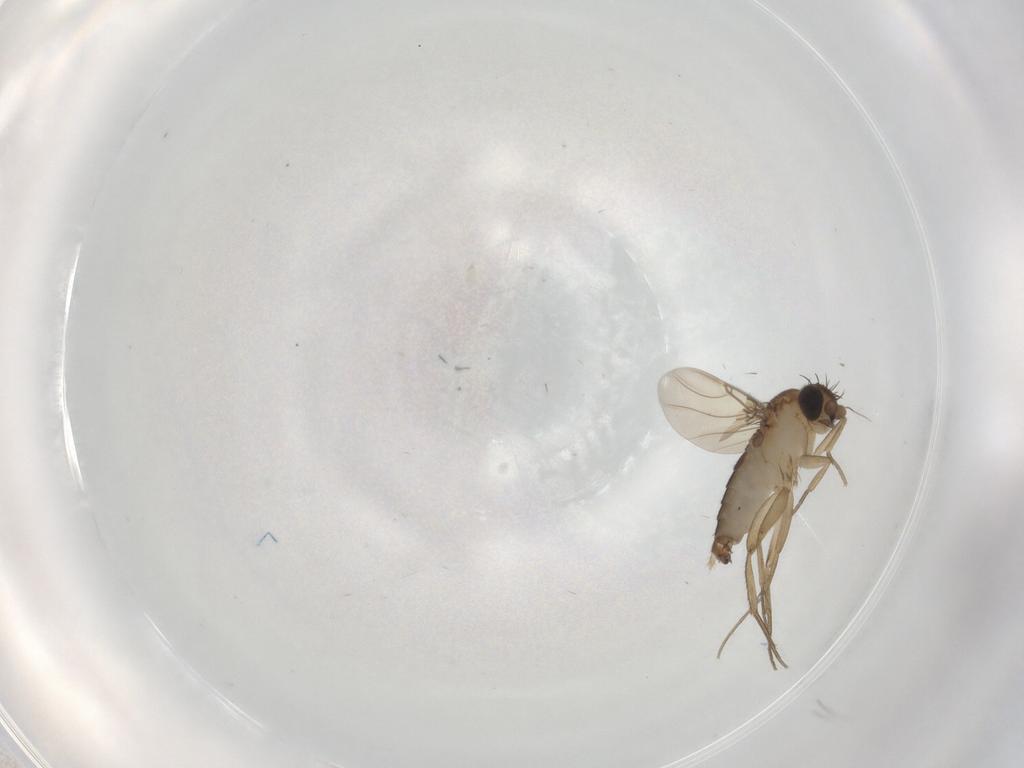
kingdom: Animalia
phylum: Arthropoda
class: Insecta
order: Diptera
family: Phoridae
